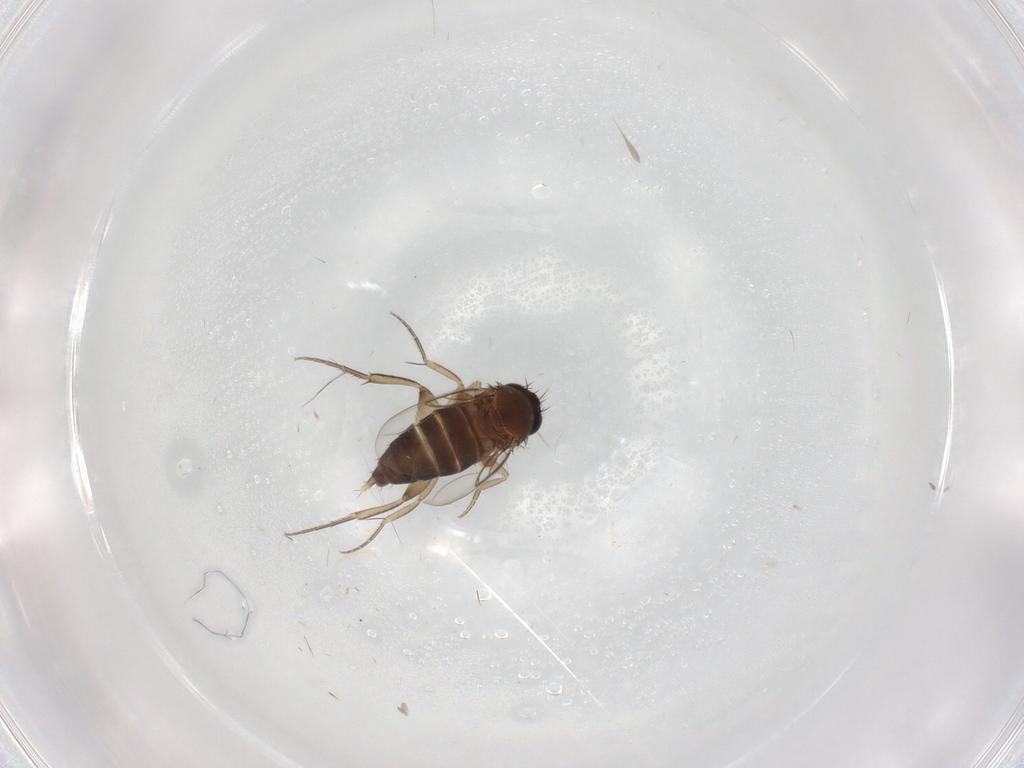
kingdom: Animalia
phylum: Arthropoda
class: Insecta
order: Diptera
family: Phoridae
